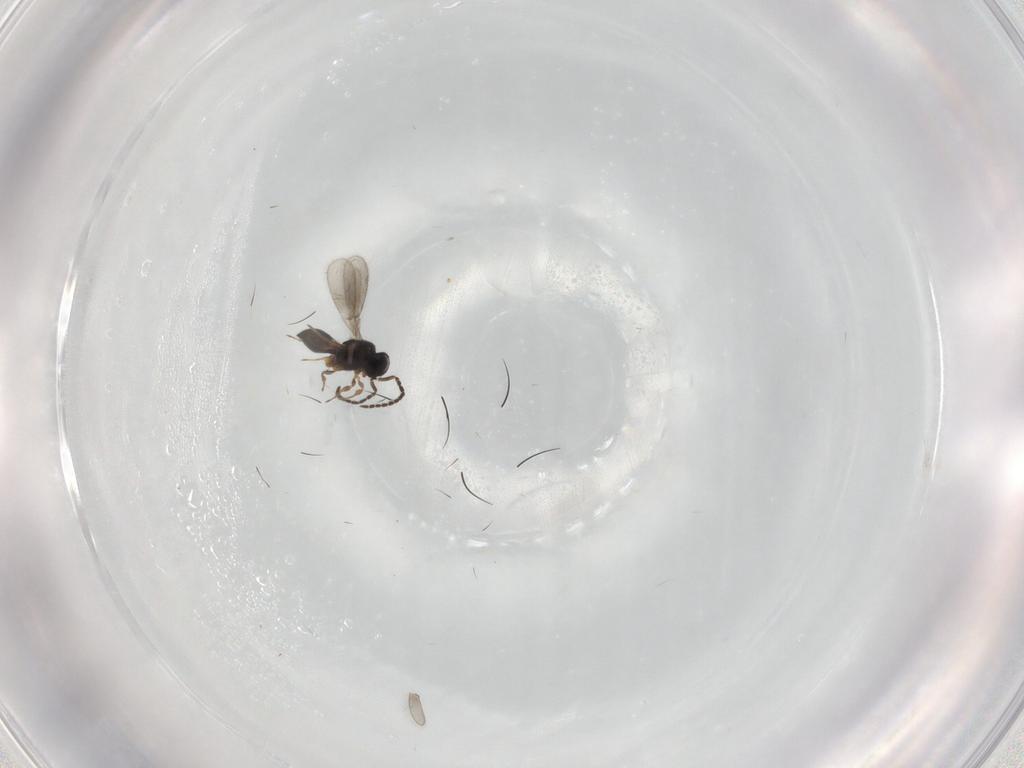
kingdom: Animalia
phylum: Arthropoda
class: Insecta
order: Hymenoptera
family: Scelionidae
